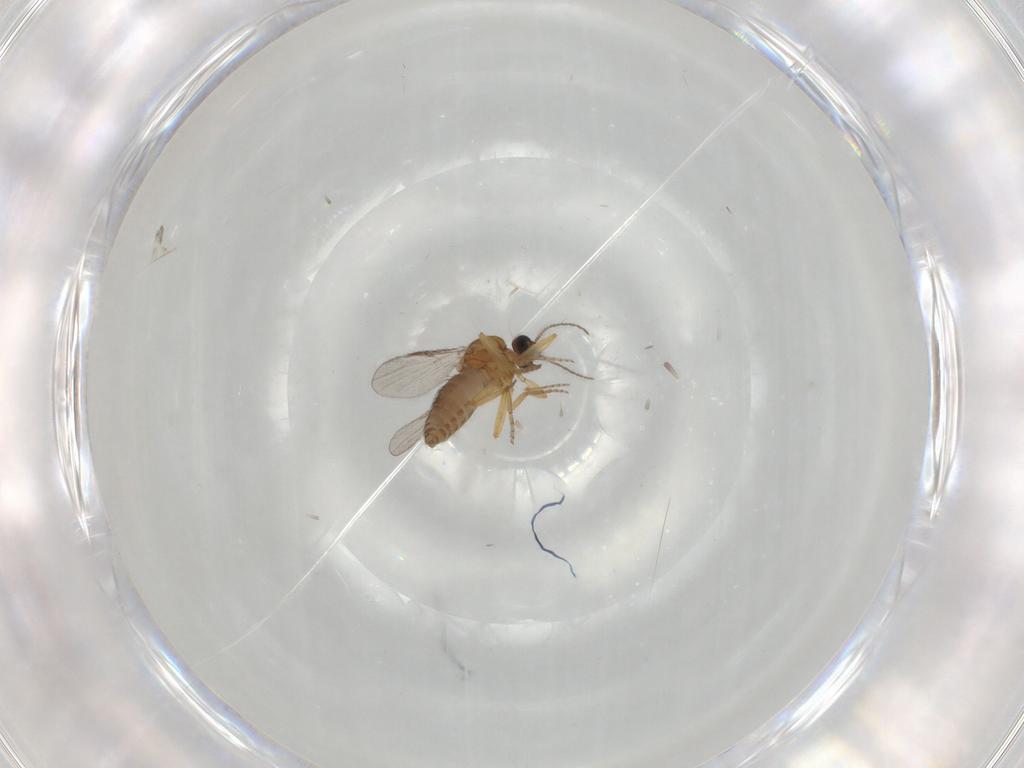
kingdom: Animalia
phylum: Arthropoda
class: Insecta
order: Diptera
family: Ceratopogonidae
